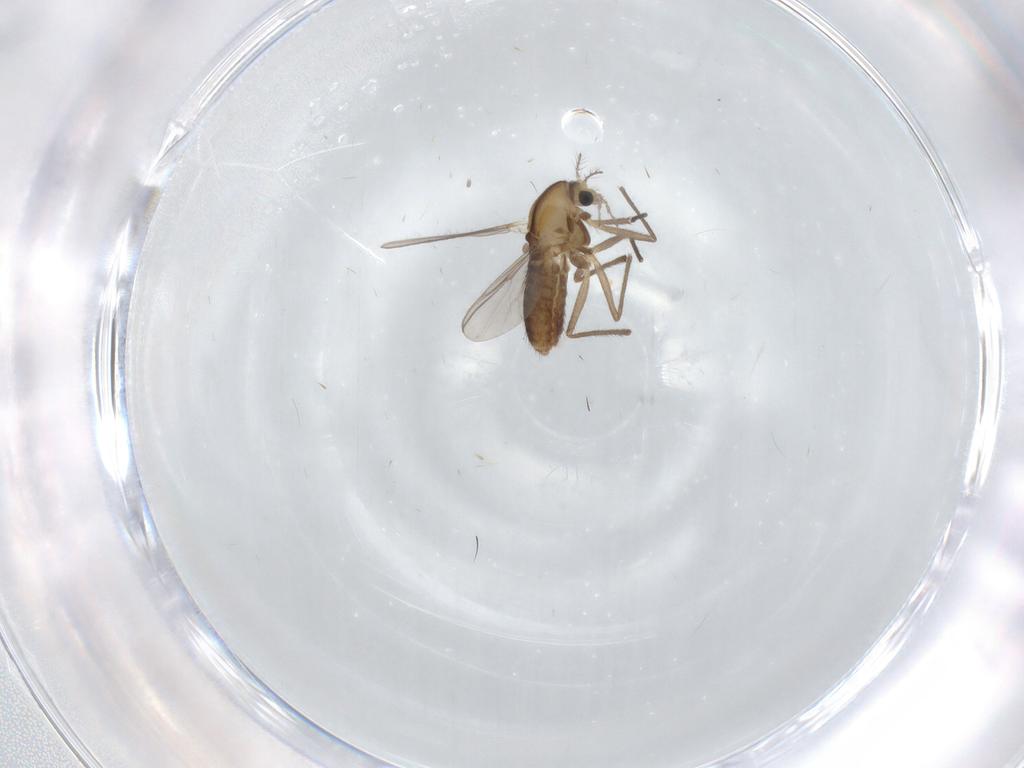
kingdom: Animalia
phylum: Arthropoda
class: Insecta
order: Diptera
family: Chironomidae
